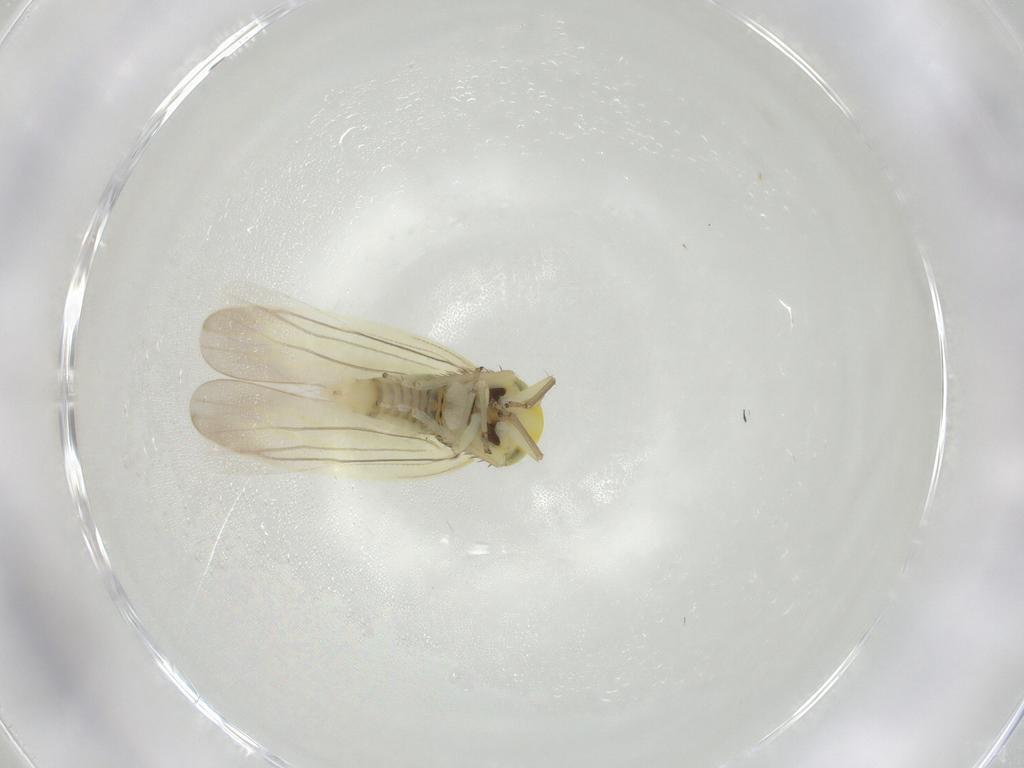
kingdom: Animalia
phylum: Arthropoda
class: Insecta
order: Hemiptera
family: Cicadellidae
